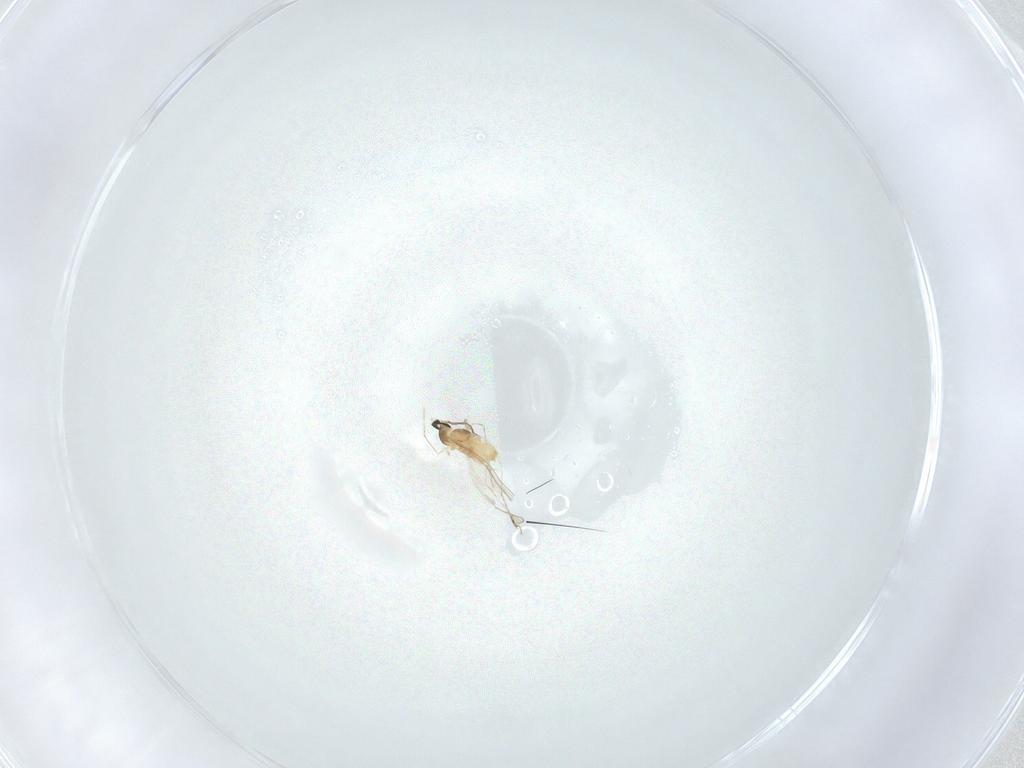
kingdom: Animalia
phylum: Arthropoda
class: Insecta
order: Diptera
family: Cecidomyiidae
